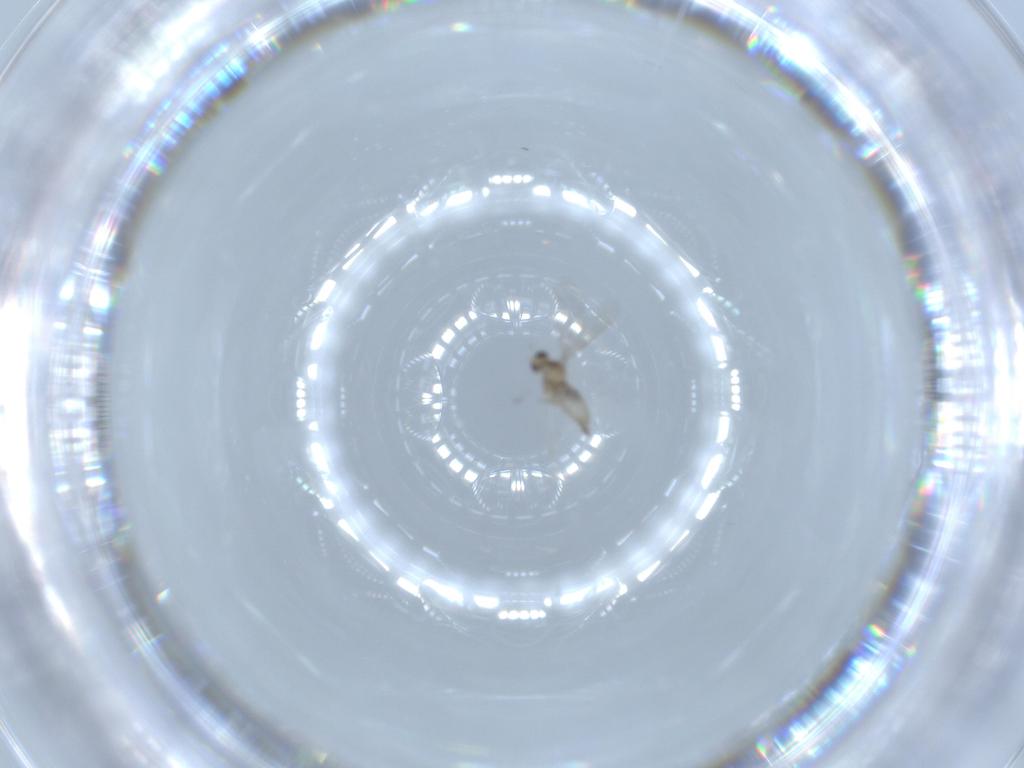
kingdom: Animalia
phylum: Arthropoda
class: Insecta
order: Diptera
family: Cecidomyiidae
